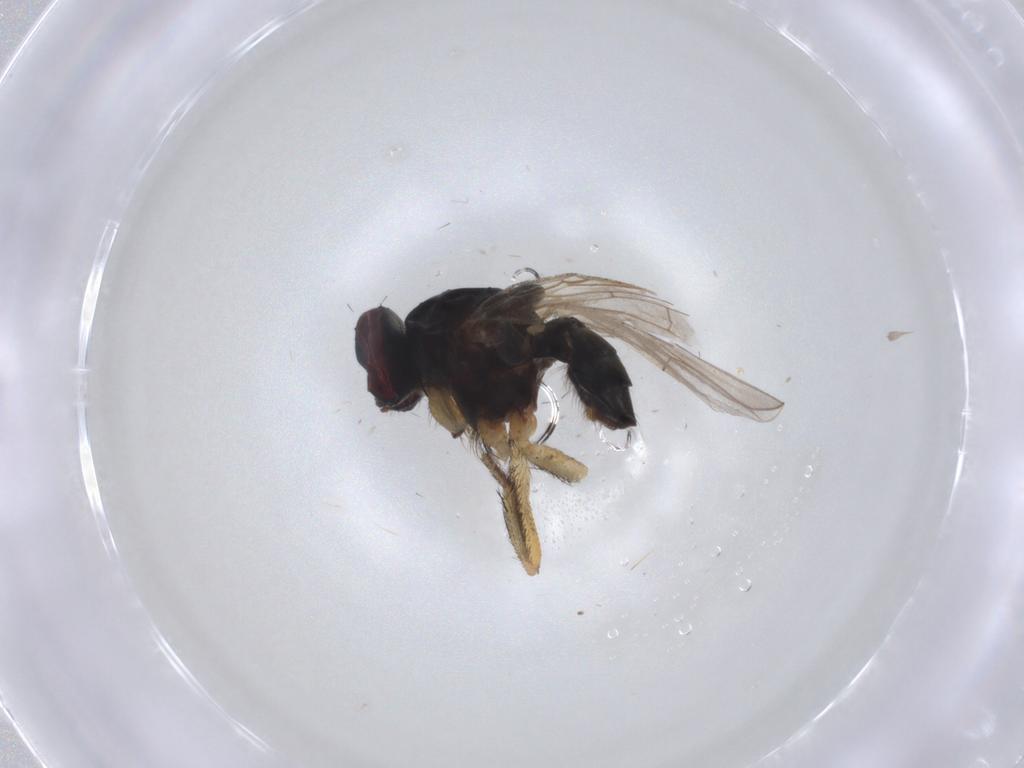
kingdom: Animalia
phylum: Arthropoda
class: Insecta
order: Diptera
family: Muscidae
